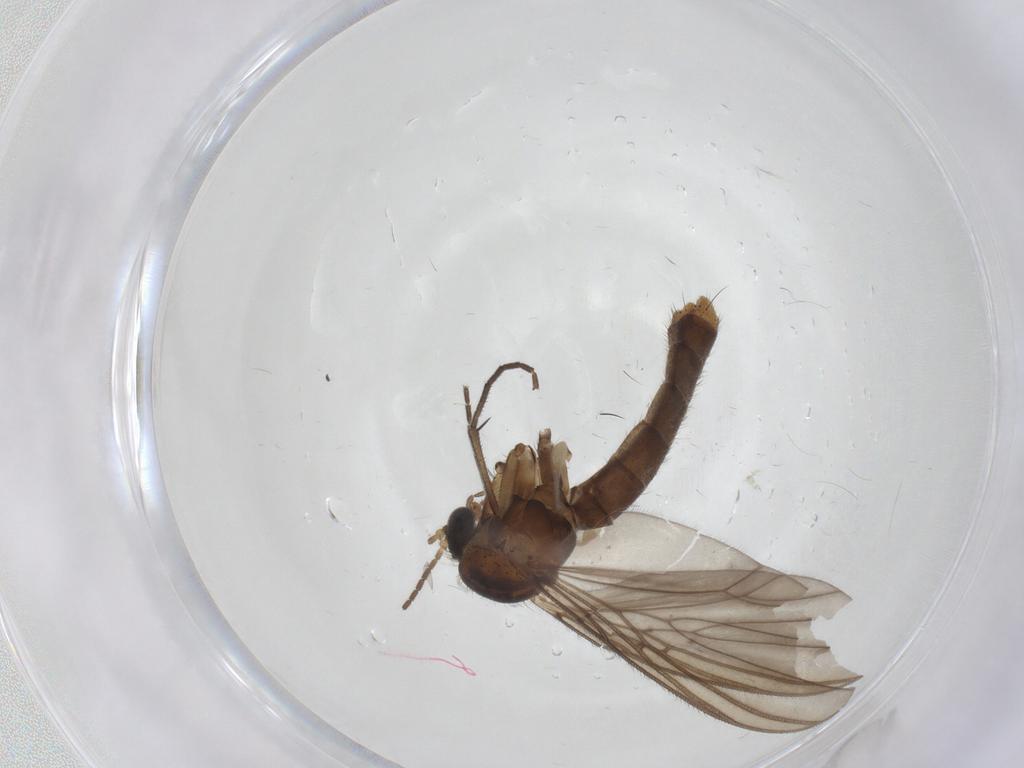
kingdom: Animalia
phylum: Arthropoda
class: Insecta
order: Diptera
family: Mycetophilidae
